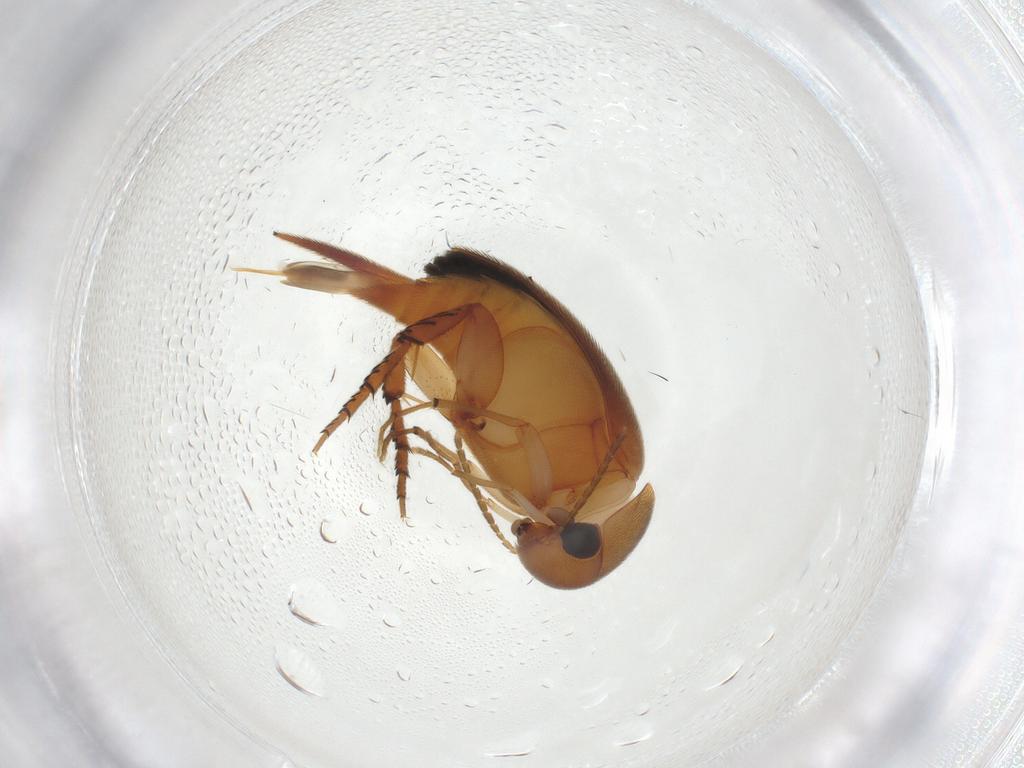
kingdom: Animalia
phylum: Arthropoda
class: Insecta
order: Coleoptera
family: Mordellidae
